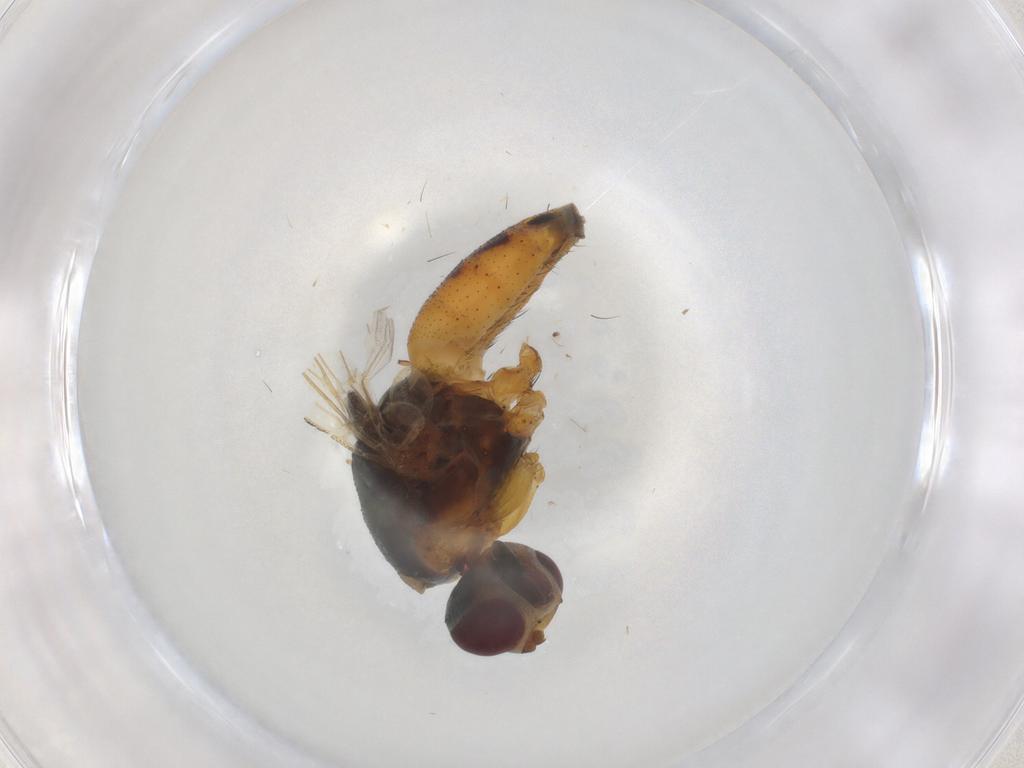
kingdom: Animalia
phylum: Arthropoda
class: Insecta
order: Diptera
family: Muscidae
